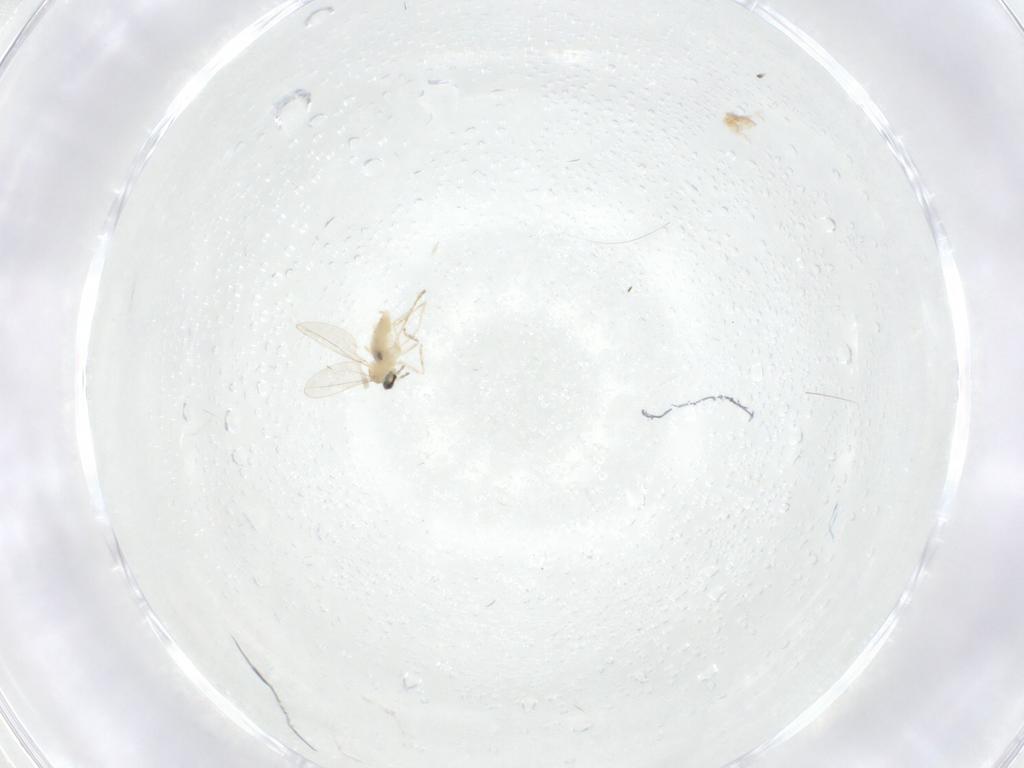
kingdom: Animalia
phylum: Arthropoda
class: Insecta
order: Diptera
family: Cecidomyiidae
